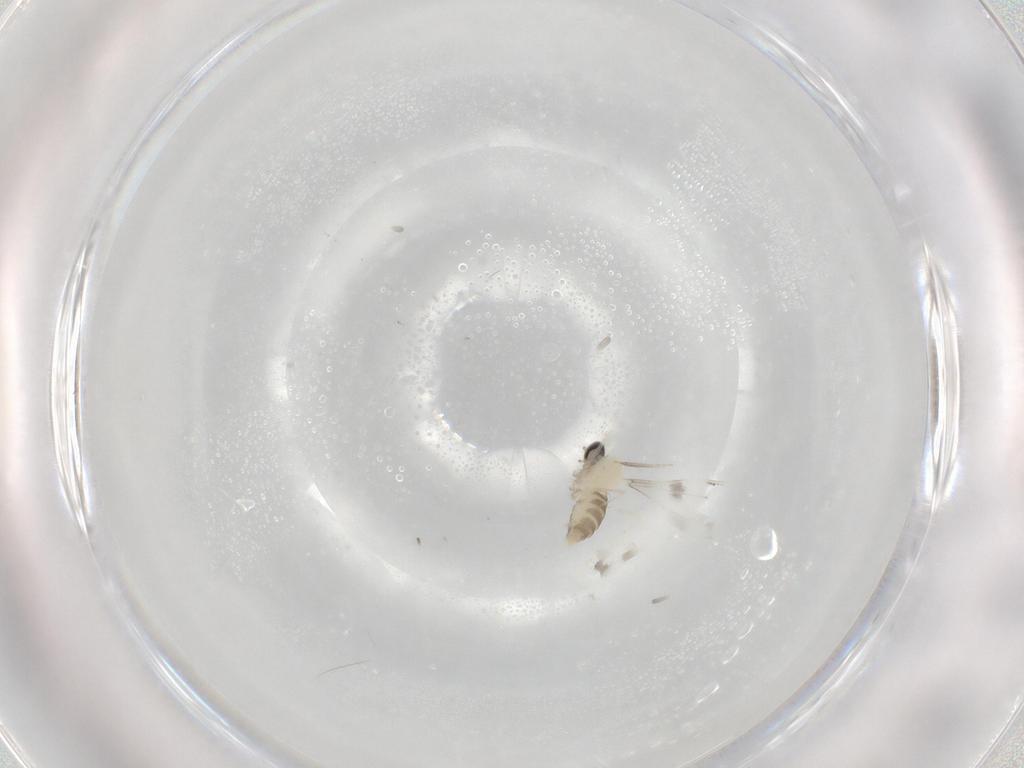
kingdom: Animalia
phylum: Arthropoda
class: Insecta
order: Diptera
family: Cecidomyiidae
